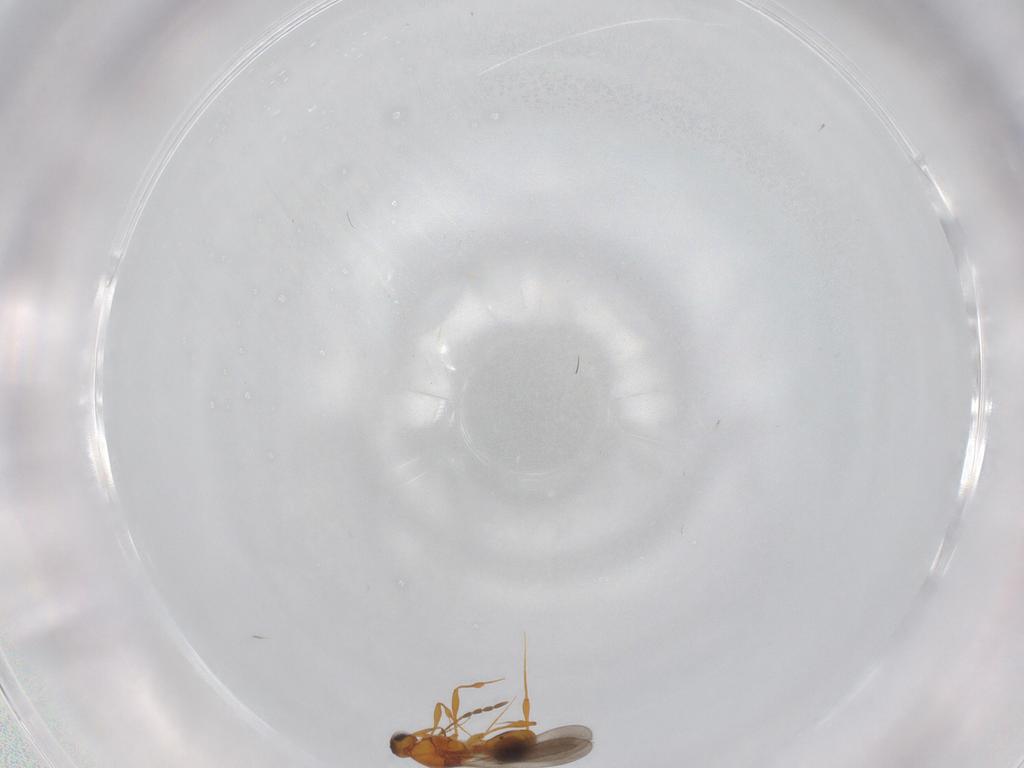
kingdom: Animalia
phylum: Arthropoda
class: Insecta
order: Hymenoptera
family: Platygastridae
